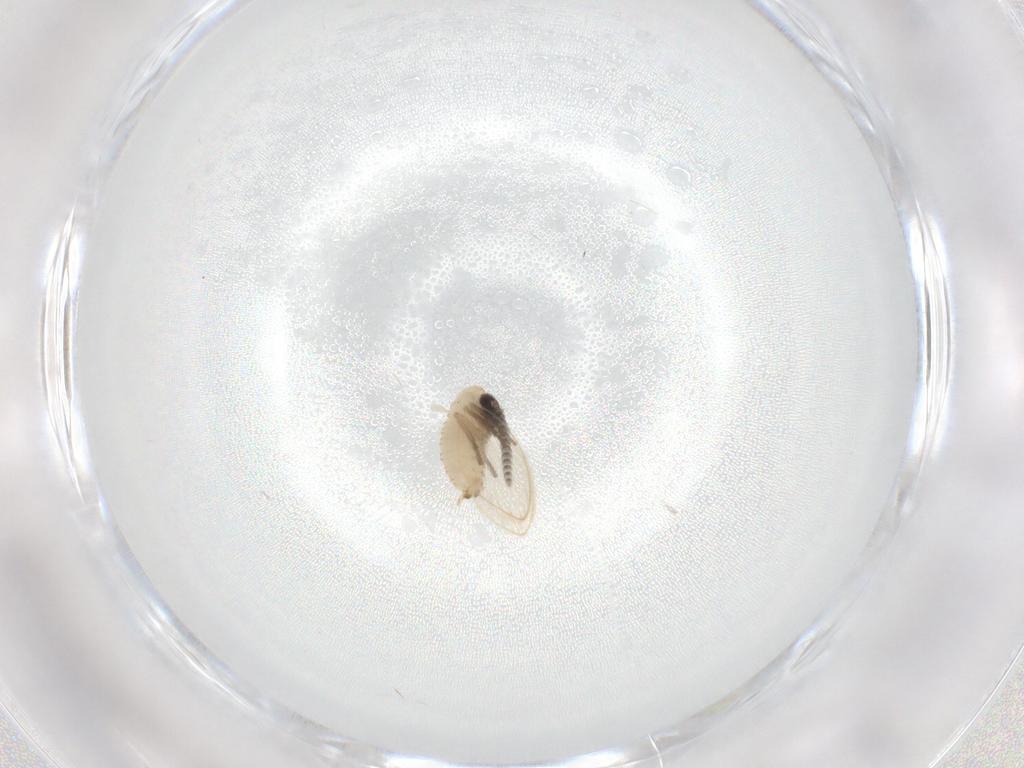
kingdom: Animalia
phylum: Arthropoda
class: Insecta
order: Diptera
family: Psychodidae
